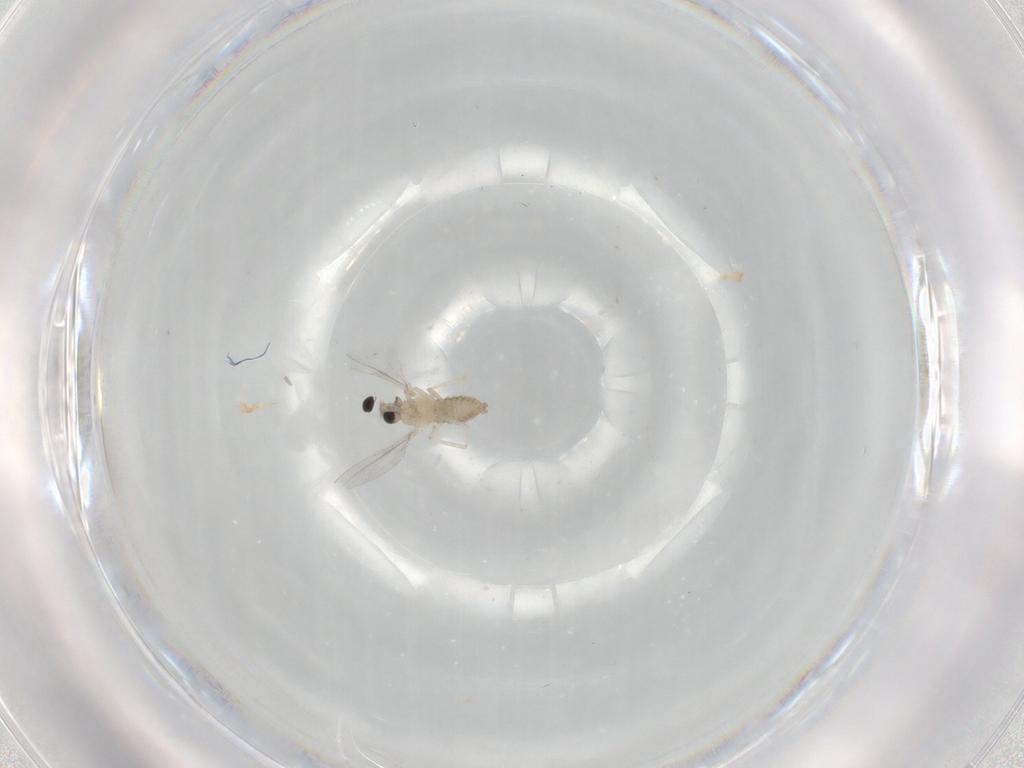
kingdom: Animalia
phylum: Arthropoda
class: Insecta
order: Diptera
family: Cecidomyiidae
